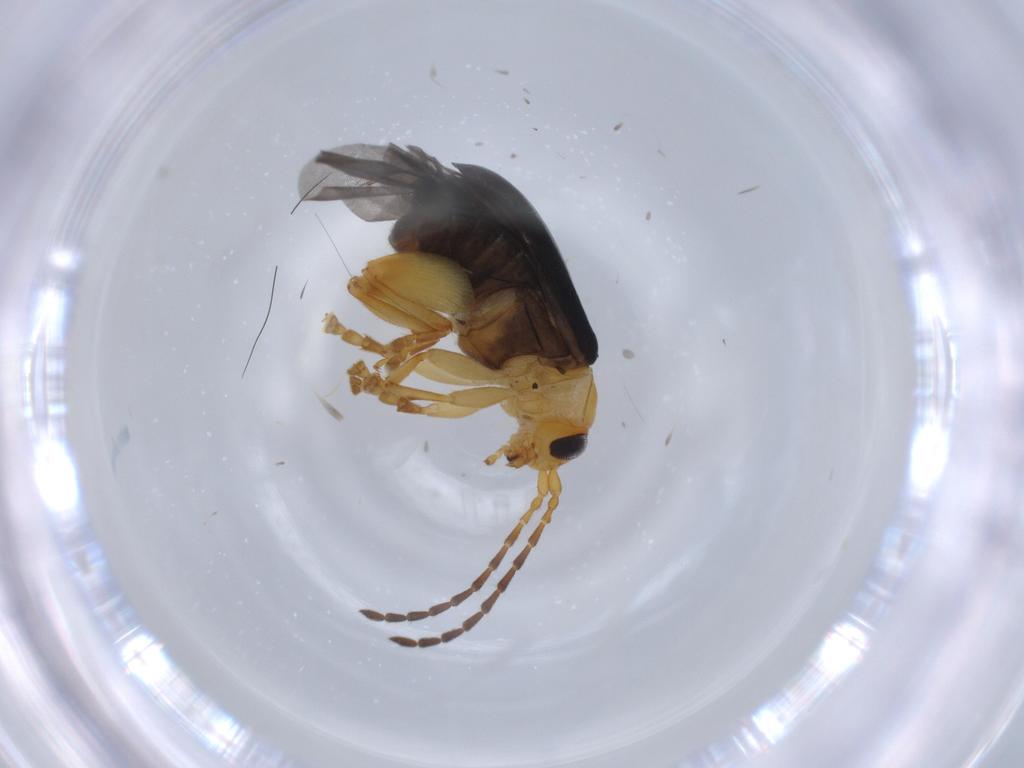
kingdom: Animalia
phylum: Arthropoda
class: Insecta
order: Coleoptera
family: Chrysomelidae
